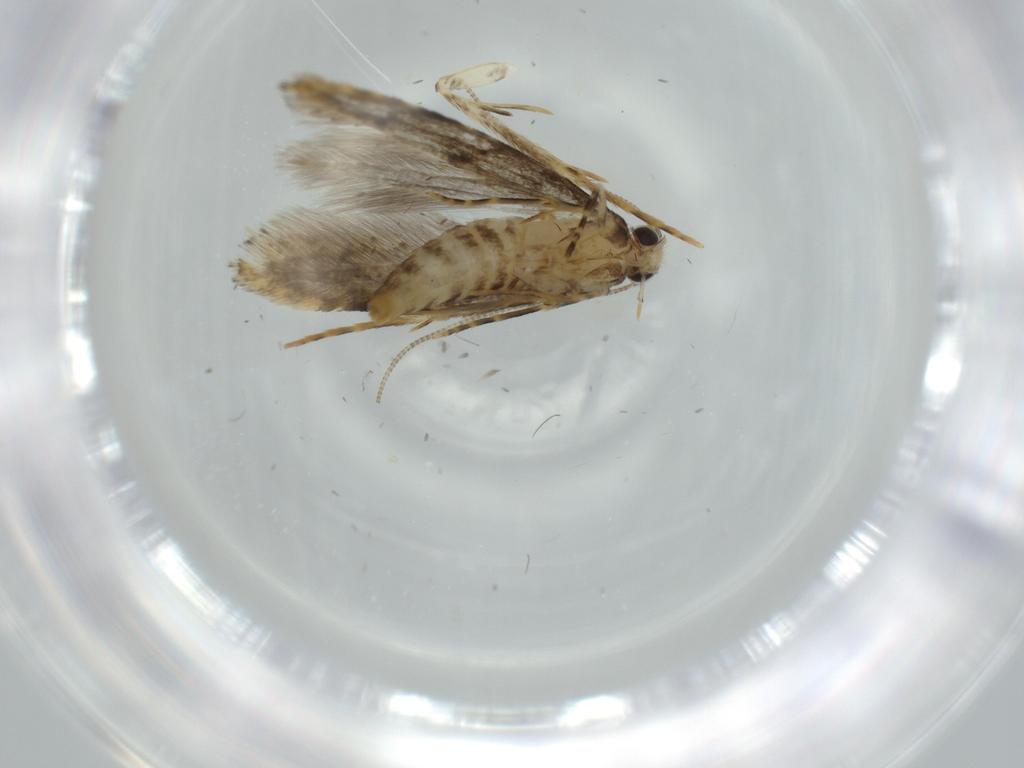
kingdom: Animalia
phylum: Arthropoda
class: Insecta
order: Lepidoptera
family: Tineidae
